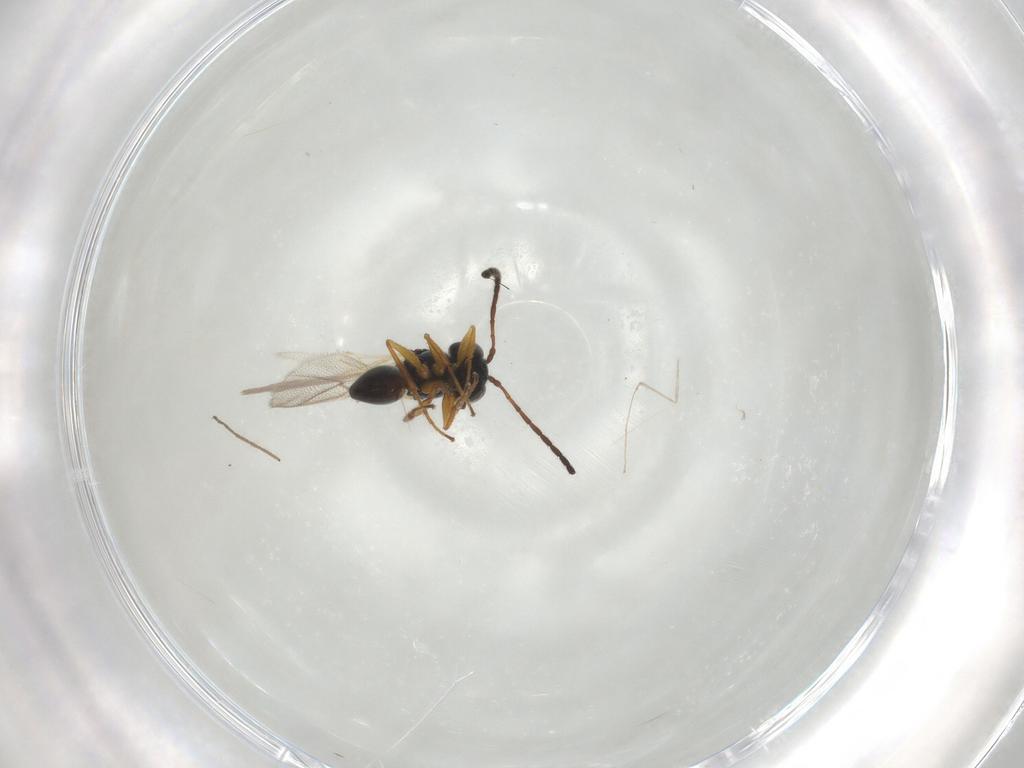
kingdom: Animalia
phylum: Arthropoda
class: Insecta
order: Hymenoptera
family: Figitidae
